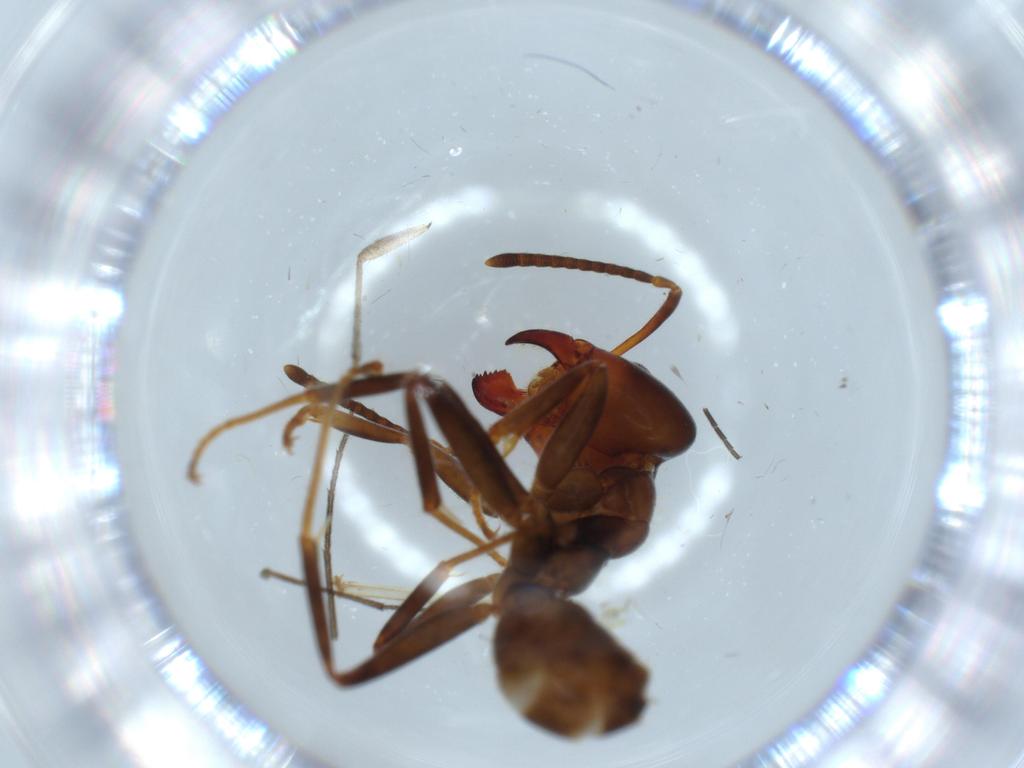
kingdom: Animalia
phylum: Arthropoda
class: Insecta
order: Hymenoptera
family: Formicidae
